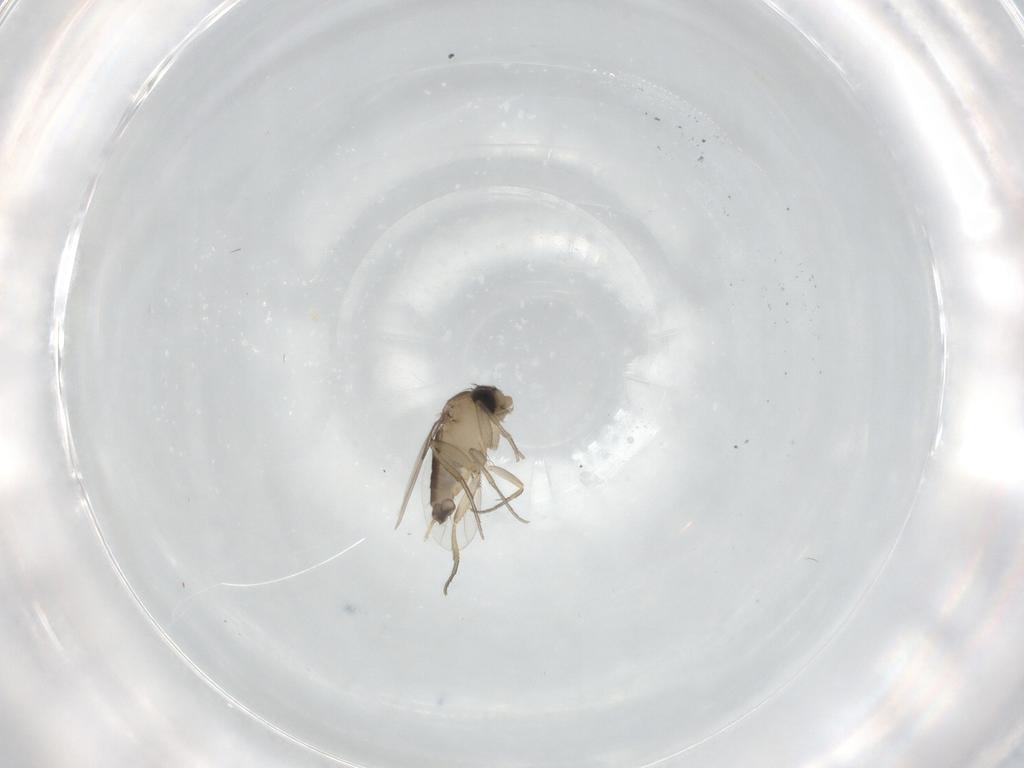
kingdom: Animalia
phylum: Arthropoda
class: Insecta
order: Diptera
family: Phoridae
